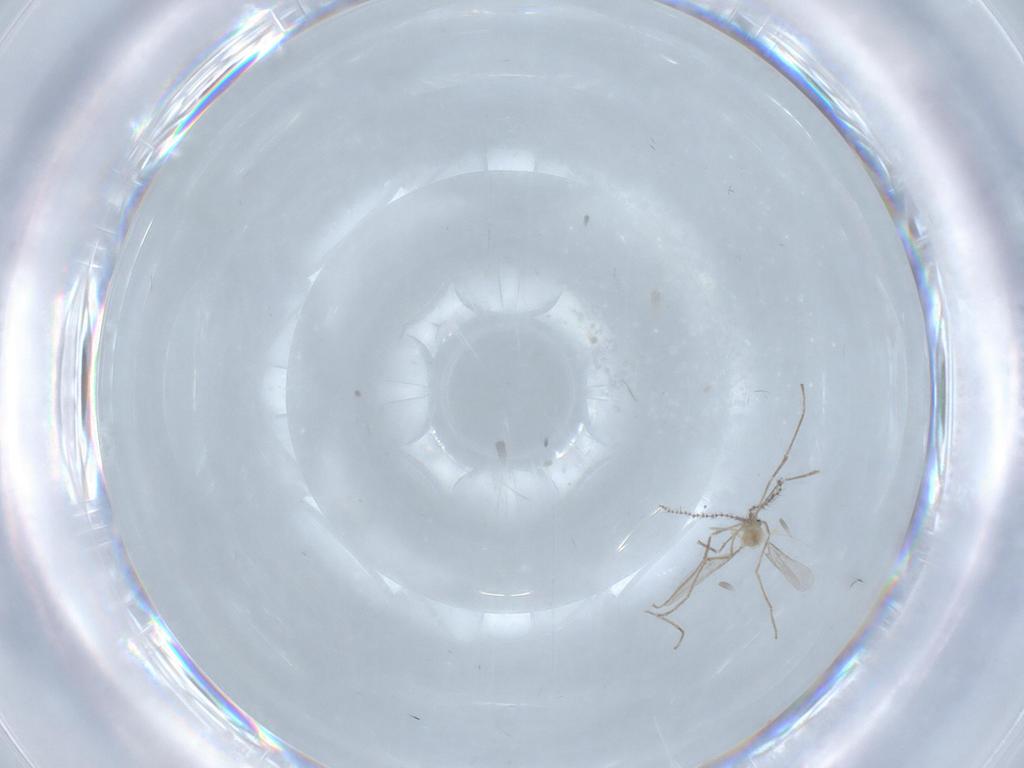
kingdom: Animalia
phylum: Arthropoda
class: Insecta
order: Diptera
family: Cecidomyiidae
